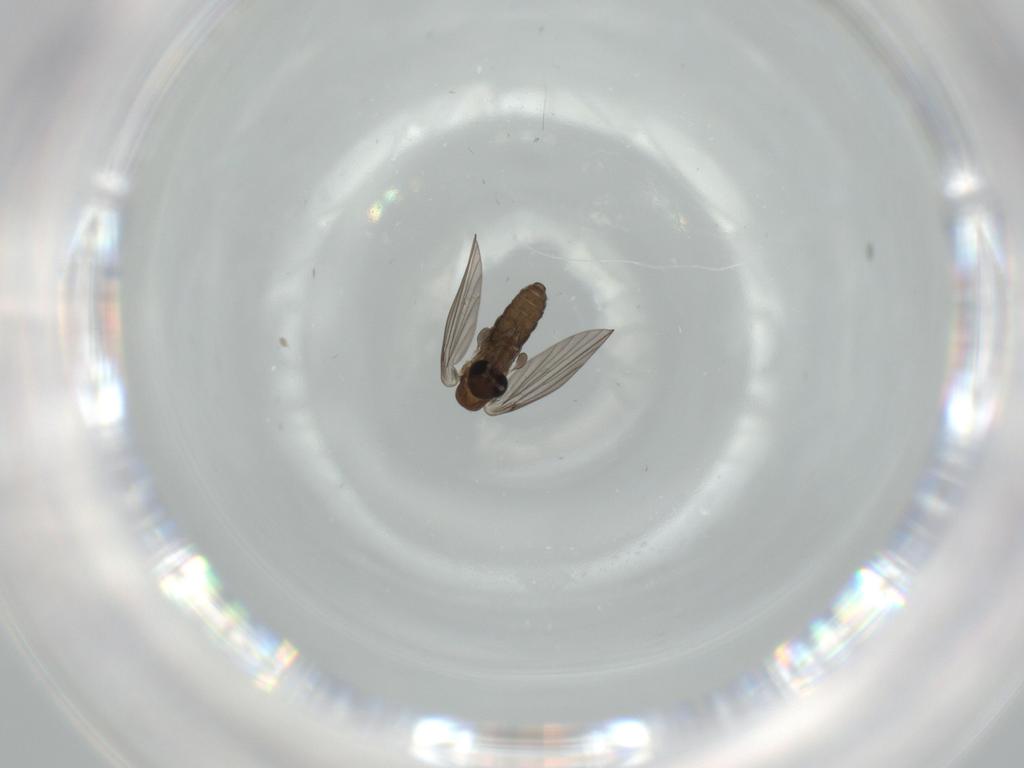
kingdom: Animalia
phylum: Arthropoda
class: Insecta
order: Diptera
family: Psychodidae
